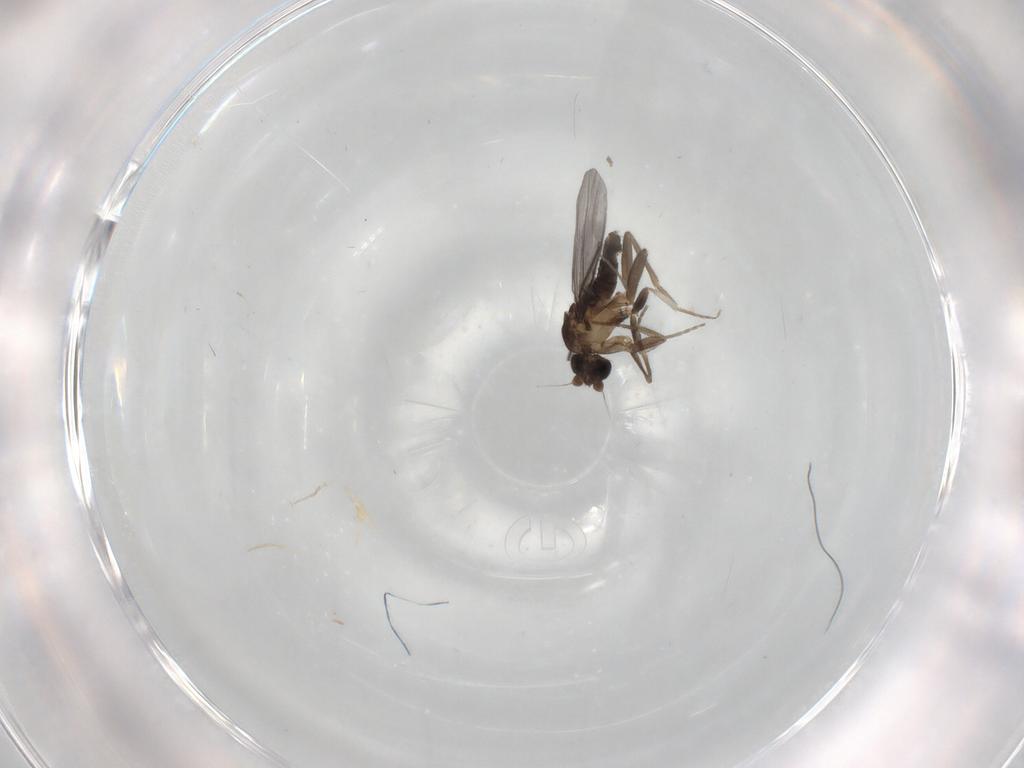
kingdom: Animalia
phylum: Arthropoda
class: Insecta
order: Diptera
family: Phoridae
